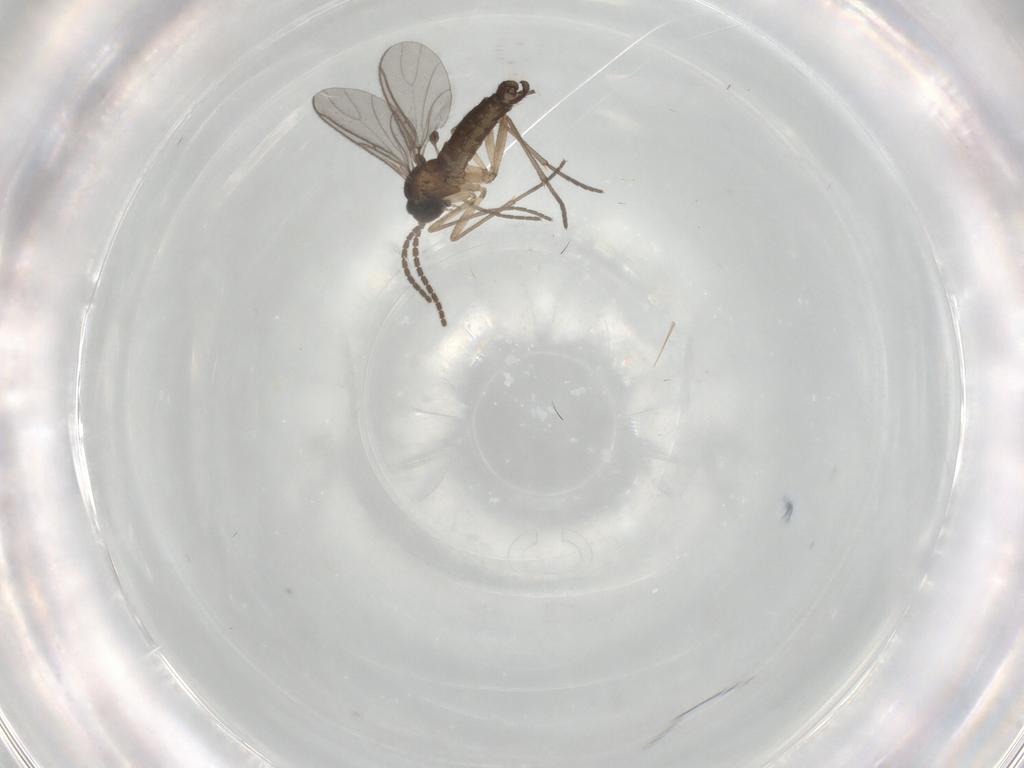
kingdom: Animalia
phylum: Arthropoda
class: Insecta
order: Diptera
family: Sciaridae
